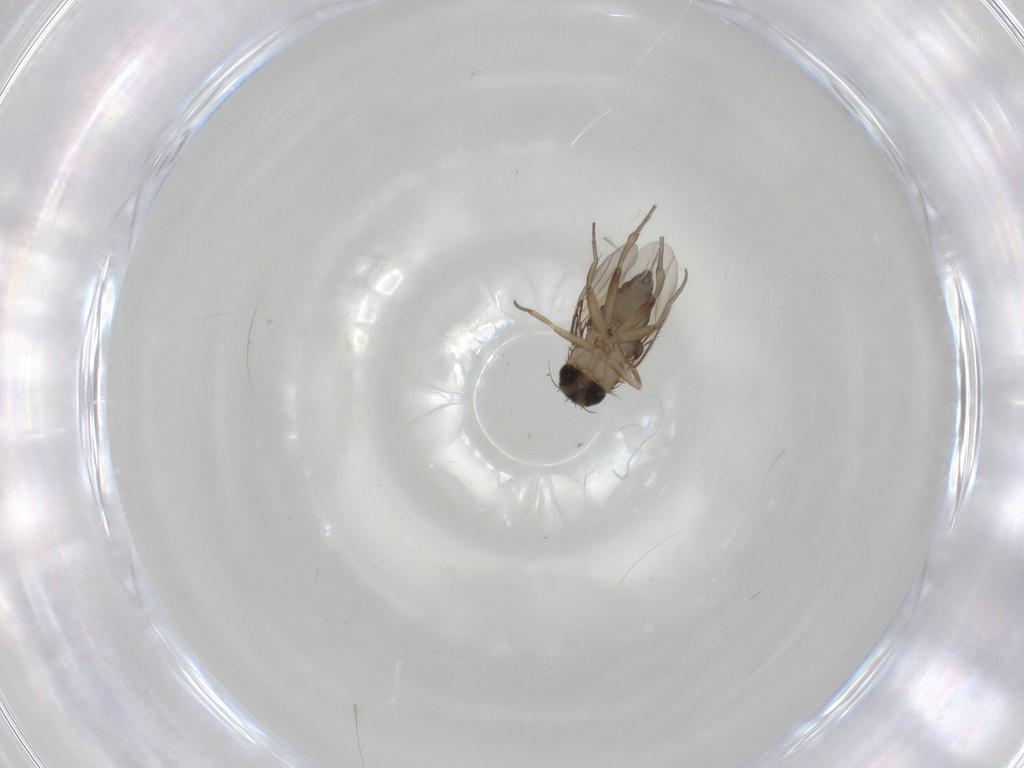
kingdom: Animalia
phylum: Arthropoda
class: Insecta
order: Diptera
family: Phoridae
